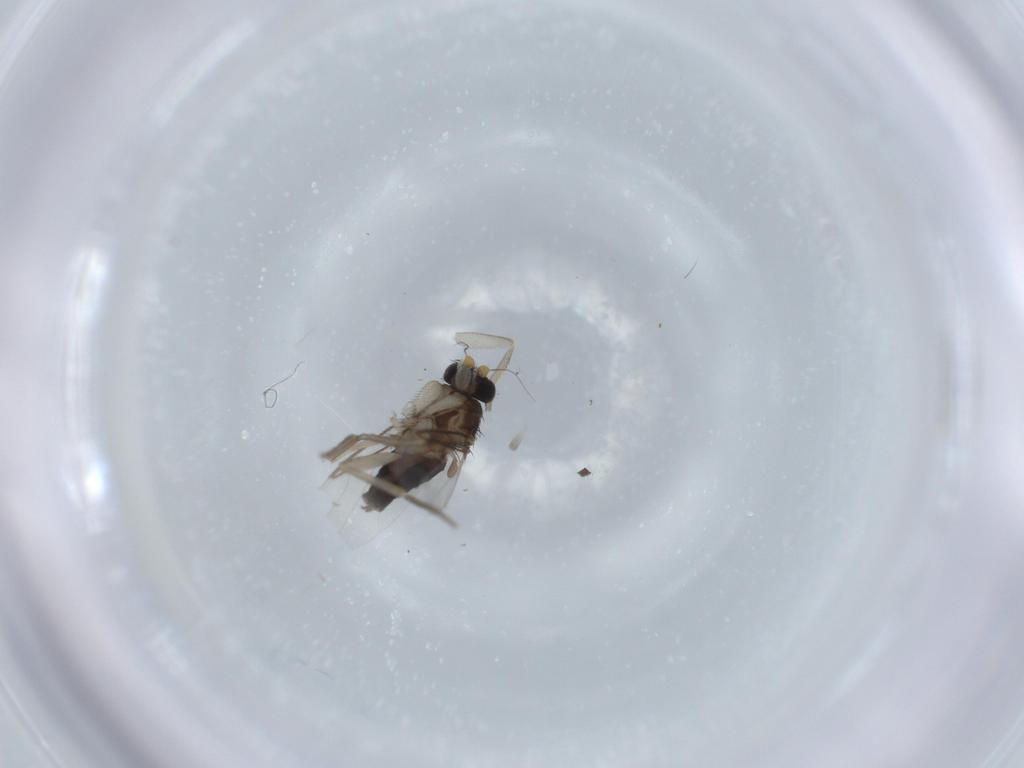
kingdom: Animalia
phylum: Arthropoda
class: Insecta
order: Diptera
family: Phoridae
